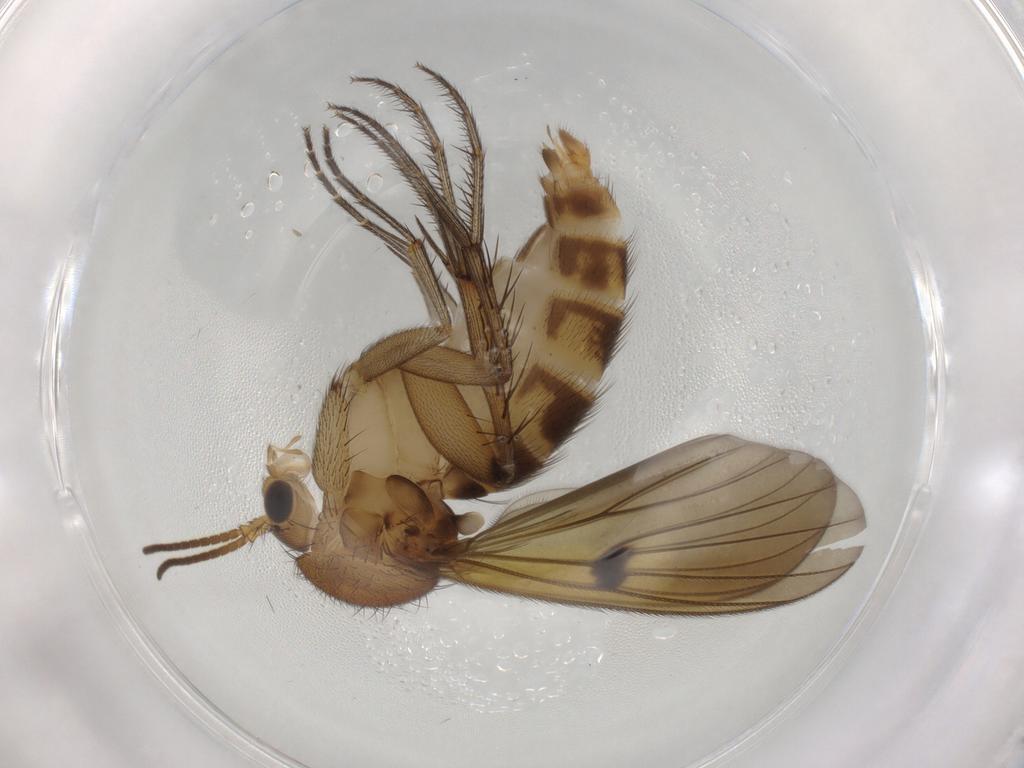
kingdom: Animalia
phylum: Arthropoda
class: Insecta
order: Diptera
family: Mycetophilidae
